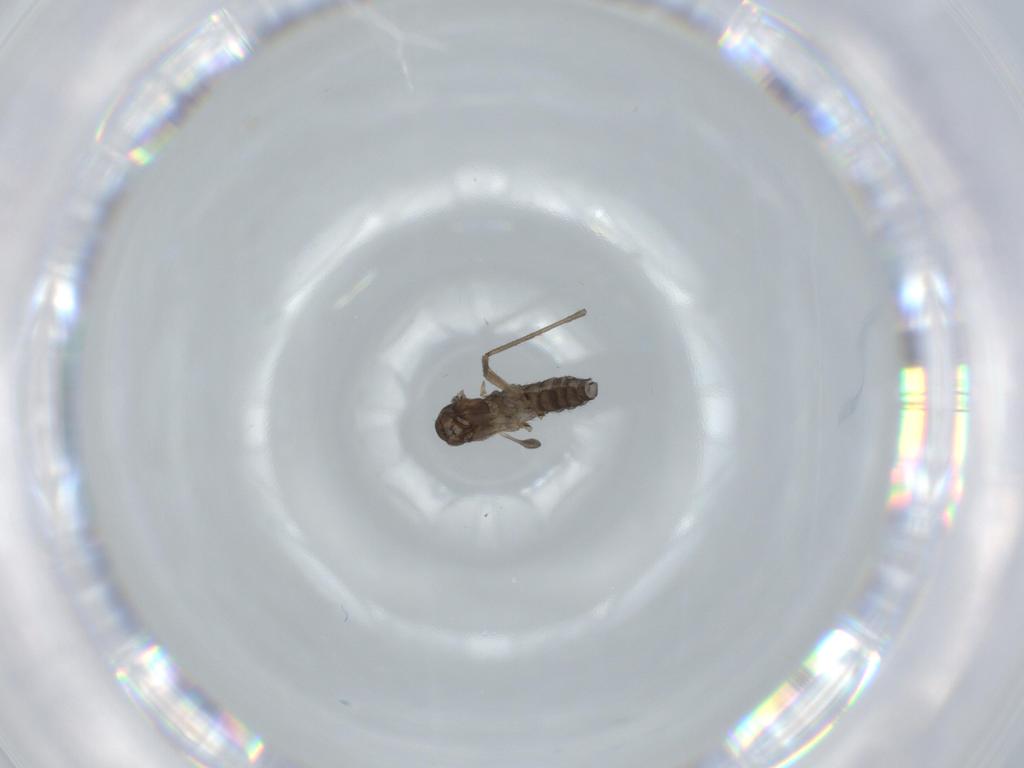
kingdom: Animalia
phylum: Arthropoda
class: Insecta
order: Diptera
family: Sciaridae
